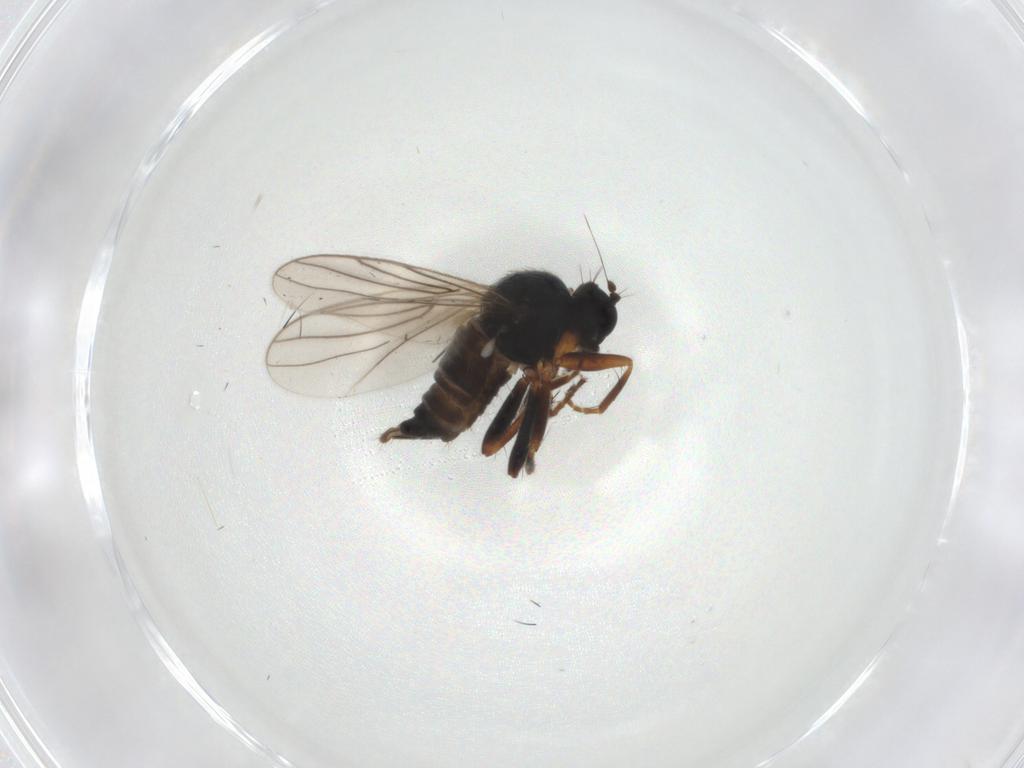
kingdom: Animalia
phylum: Arthropoda
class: Insecta
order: Diptera
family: Cecidomyiidae
